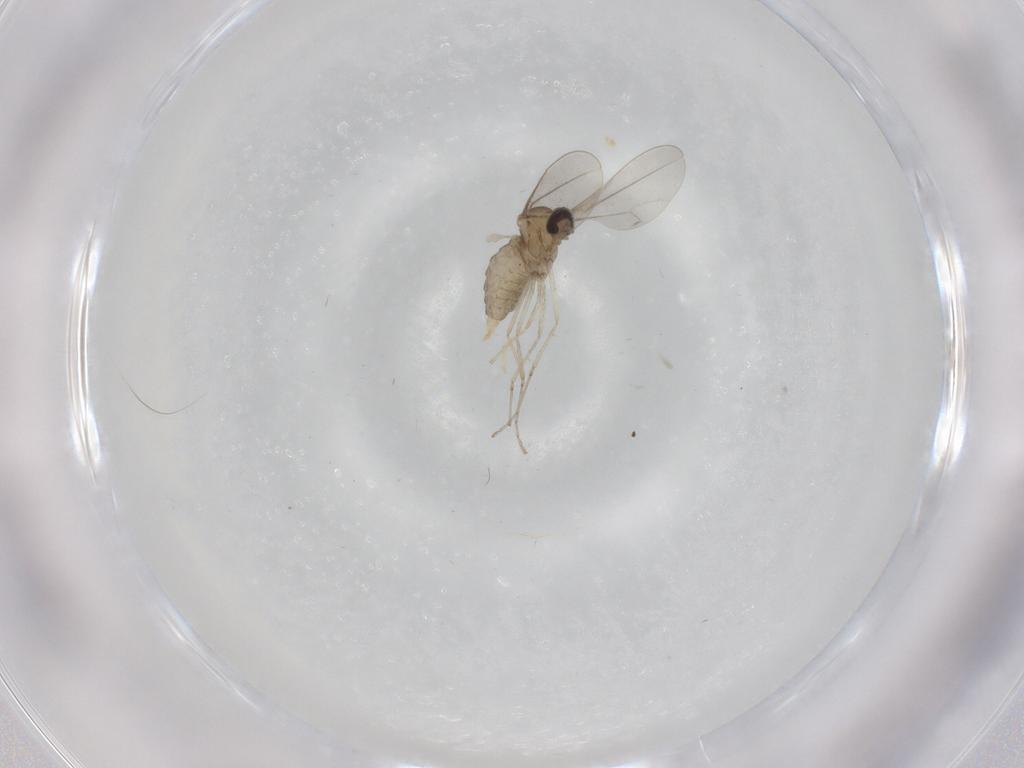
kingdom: Animalia
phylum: Arthropoda
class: Insecta
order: Diptera
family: Cecidomyiidae
